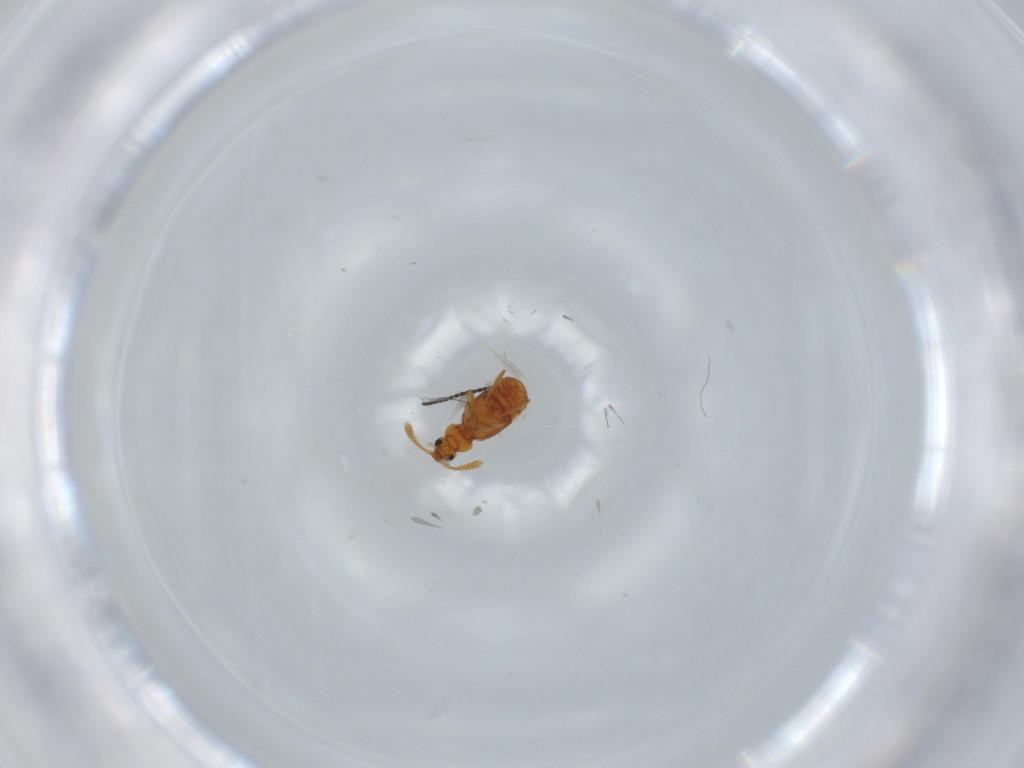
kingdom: Animalia
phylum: Arthropoda
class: Insecta
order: Coleoptera
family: Staphylinidae
